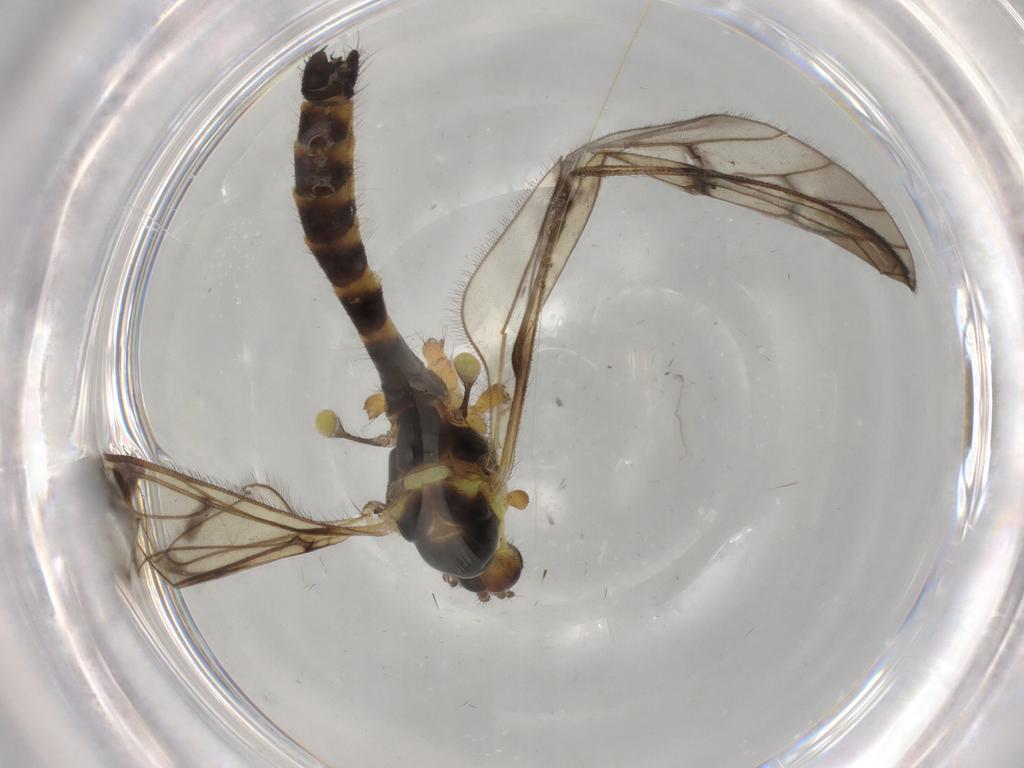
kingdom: Animalia
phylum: Arthropoda
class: Insecta
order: Diptera
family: Limoniidae
